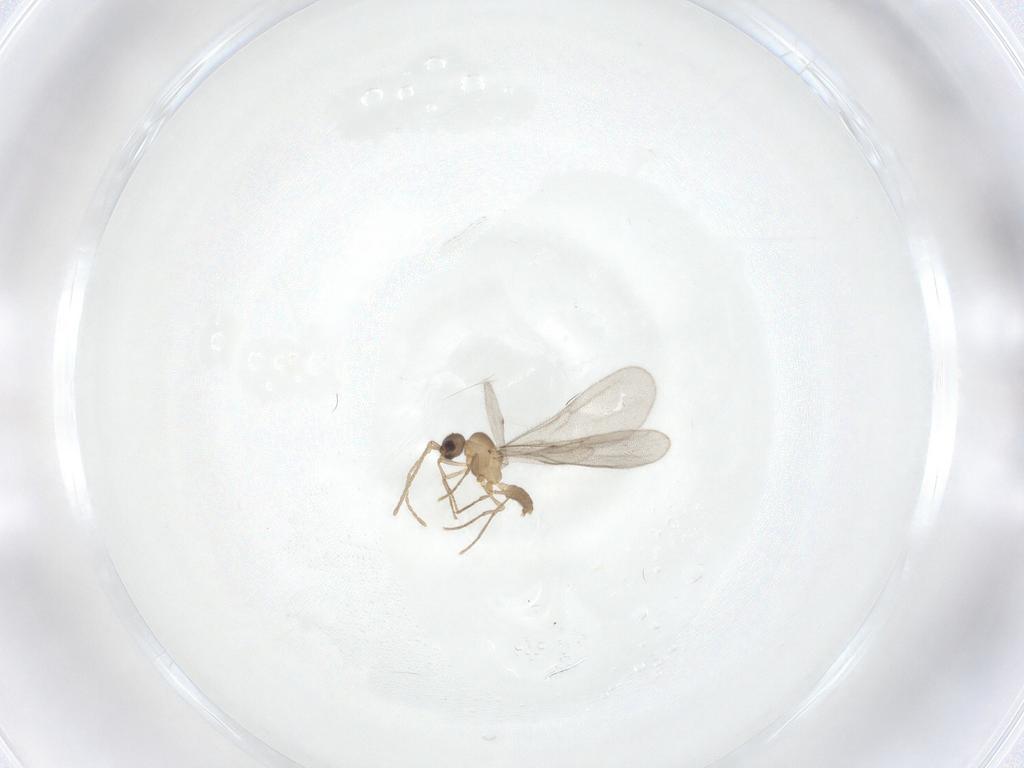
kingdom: Animalia
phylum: Arthropoda
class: Insecta
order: Hymenoptera
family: Formicidae
